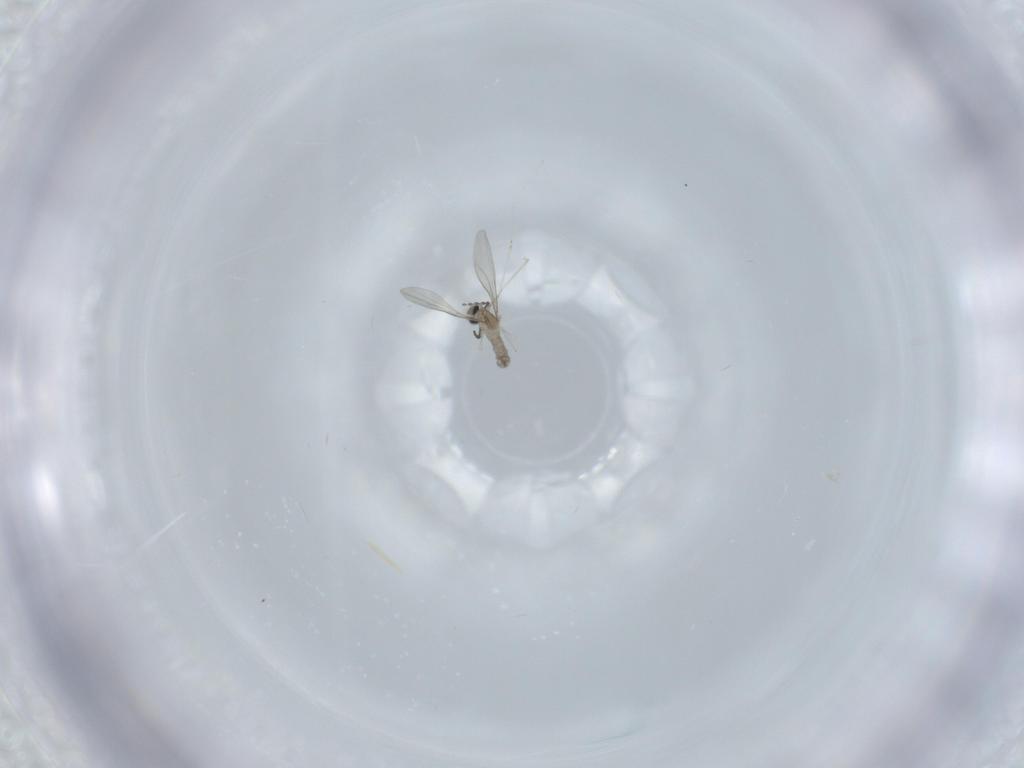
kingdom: Animalia
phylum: Arthropoda
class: Insecta
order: Diptera
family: Cecidomyiidae
